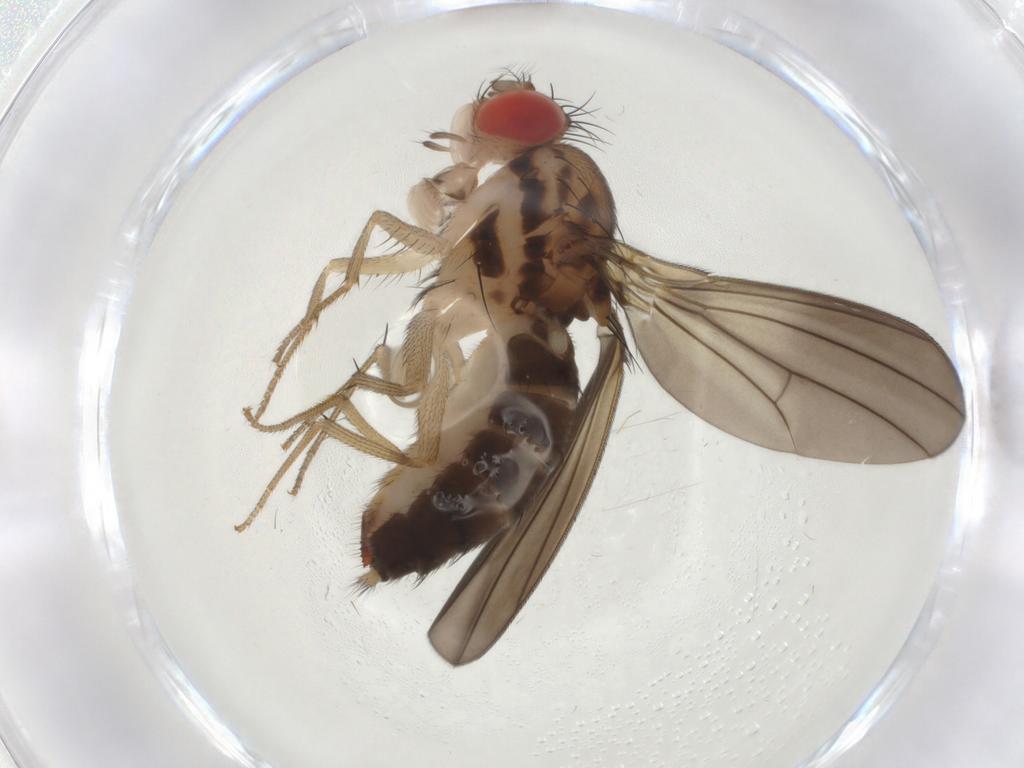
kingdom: Animalia
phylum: Arthropoda
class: Insecta
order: Diptera
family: Drosophilidae
